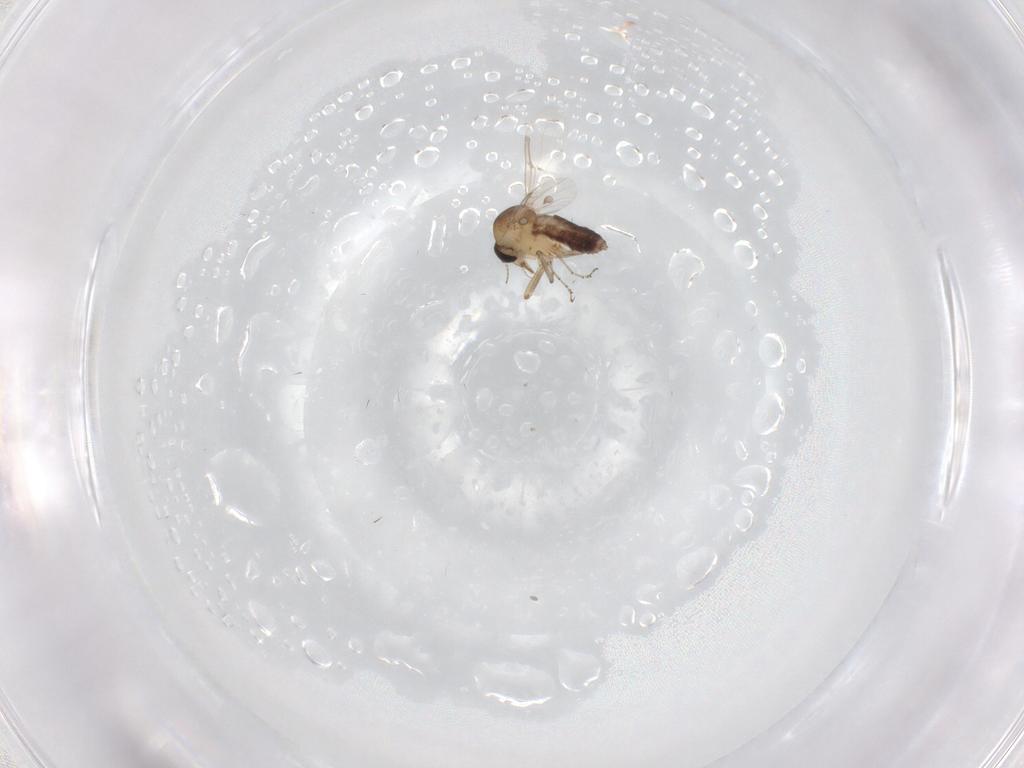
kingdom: Animalia
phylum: Arthropoda
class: Insecta
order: Diptera
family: Ceratopogonidae
